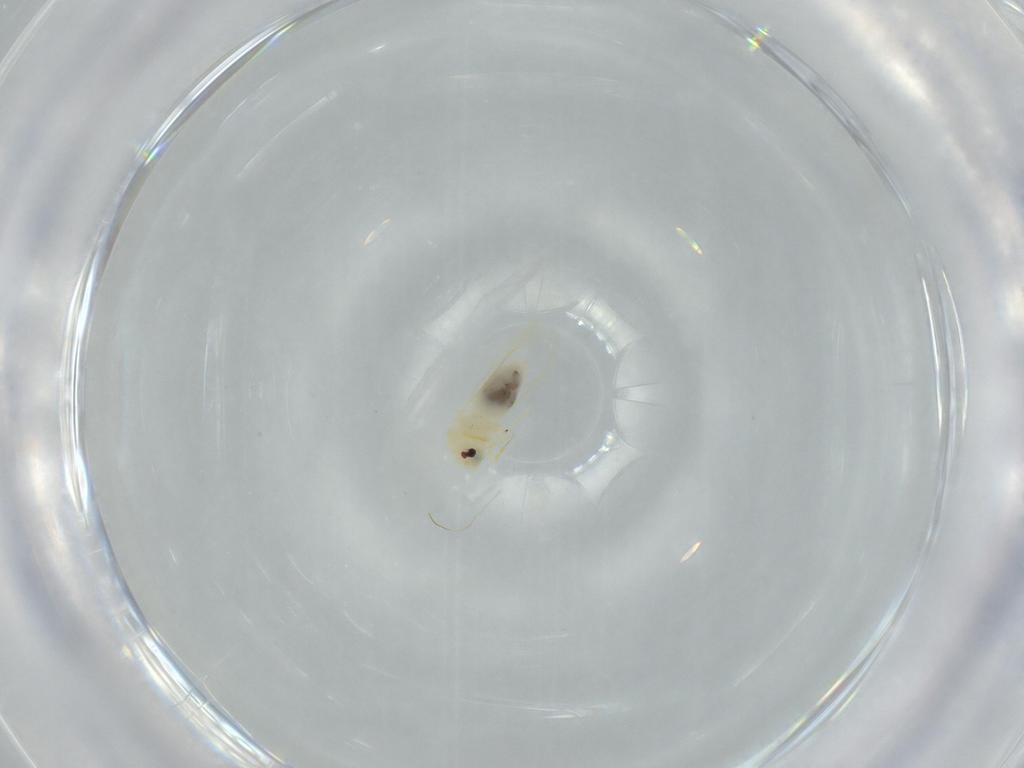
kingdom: Animalia
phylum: Arthropoda
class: Insecta
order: Hemiptera
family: Aleyrodidae
